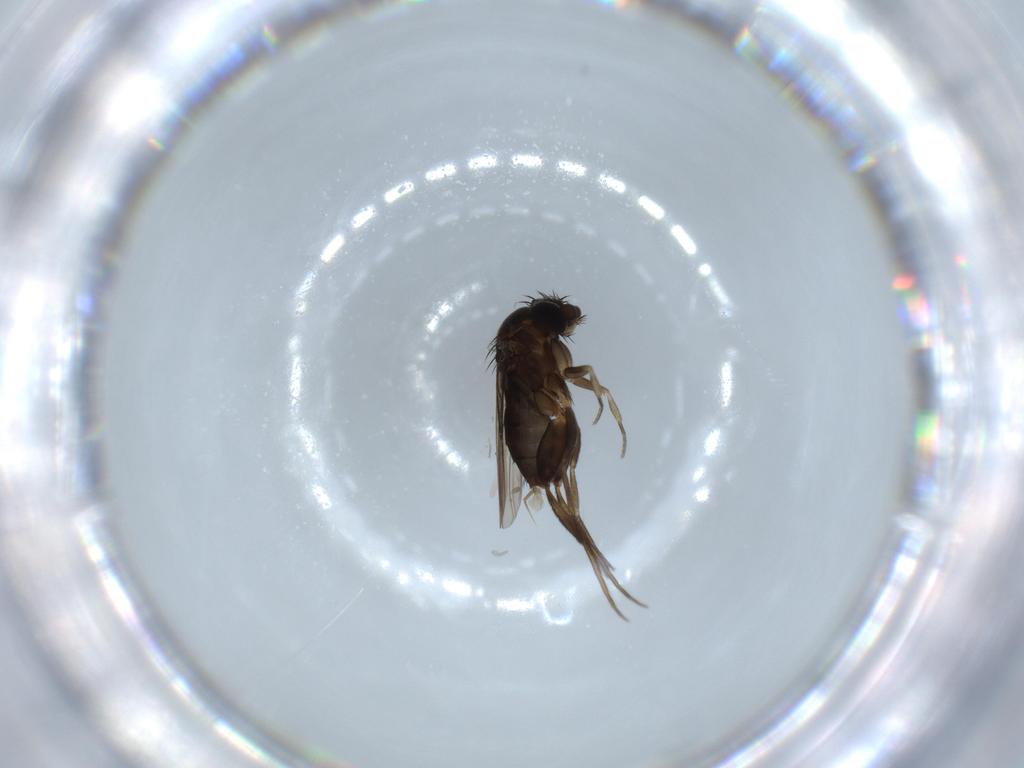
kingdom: Animalia
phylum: Arthropoda
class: Insecta
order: Diptera
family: Phoridae
